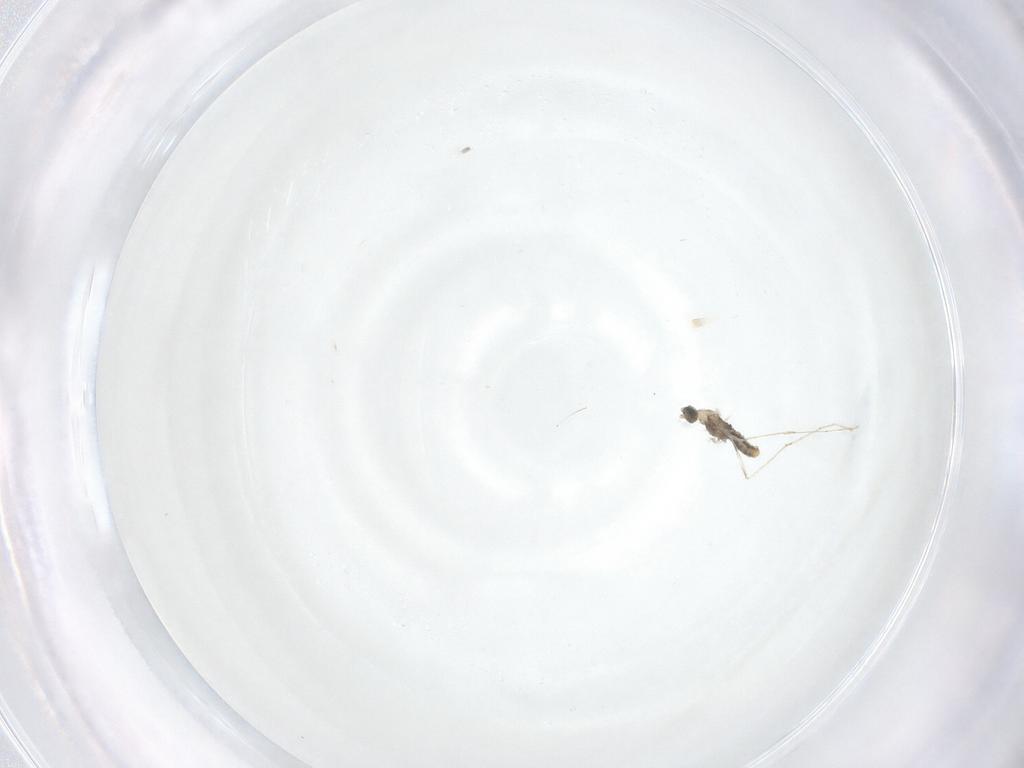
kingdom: Animalia
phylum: Arthropoda
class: Insecta
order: Diptera
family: Cecidomyiidae
